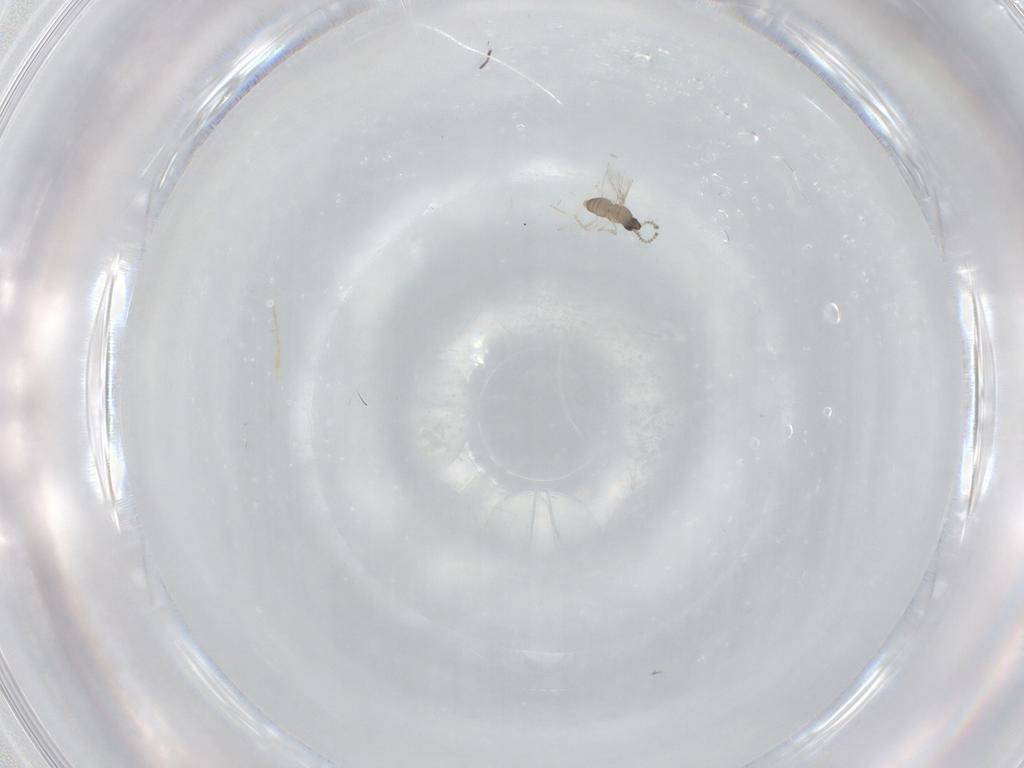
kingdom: Animalia
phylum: Arthropoda
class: Insecta
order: Diptera
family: Cecidomyiidae
